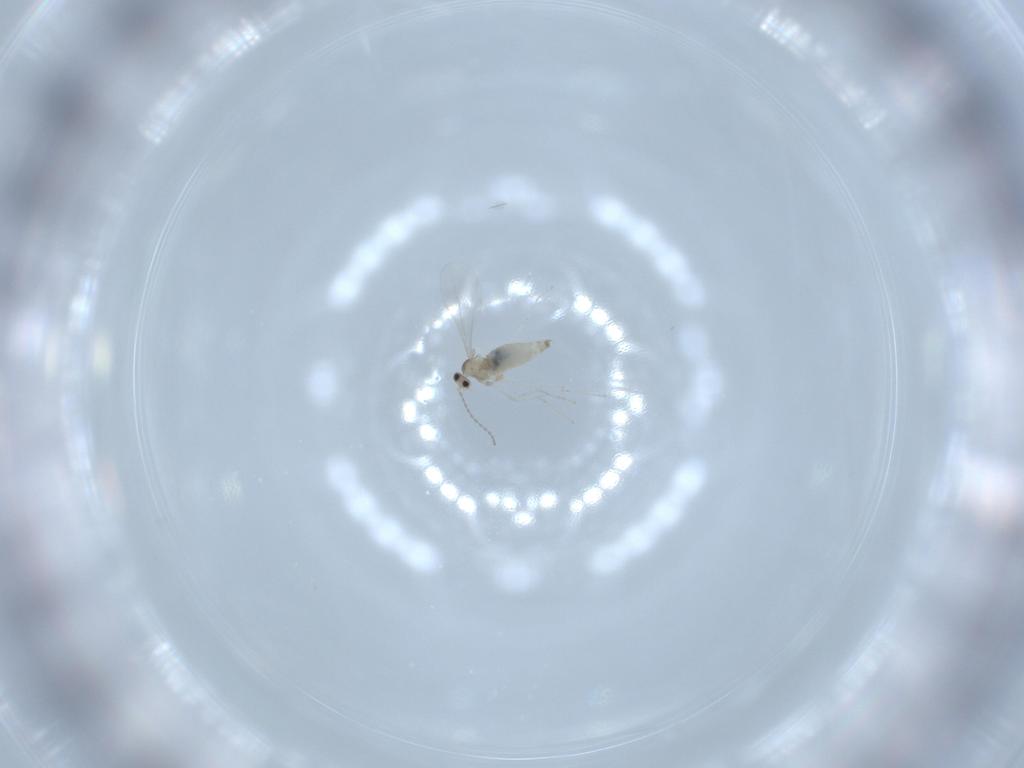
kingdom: Animalia
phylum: Arthropoda
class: Insecta
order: Diptera
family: Cecidomyiidae
